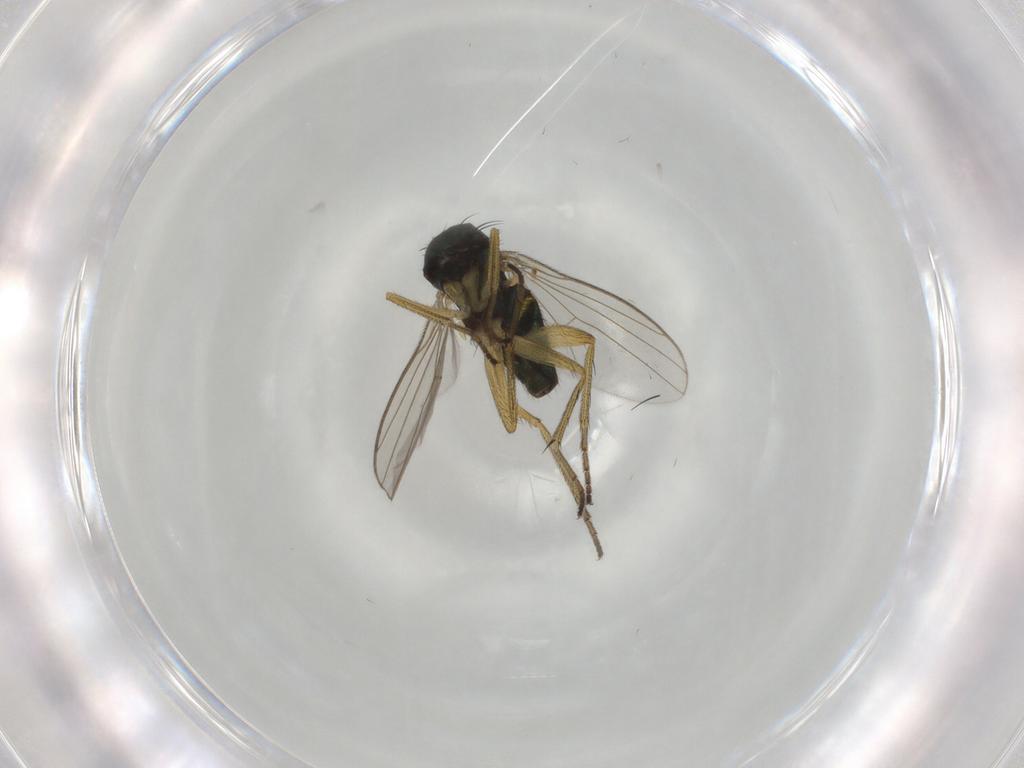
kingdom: Animalia
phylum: Arthropoda
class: Insecta
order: Diptera
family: Dolichopodidae
